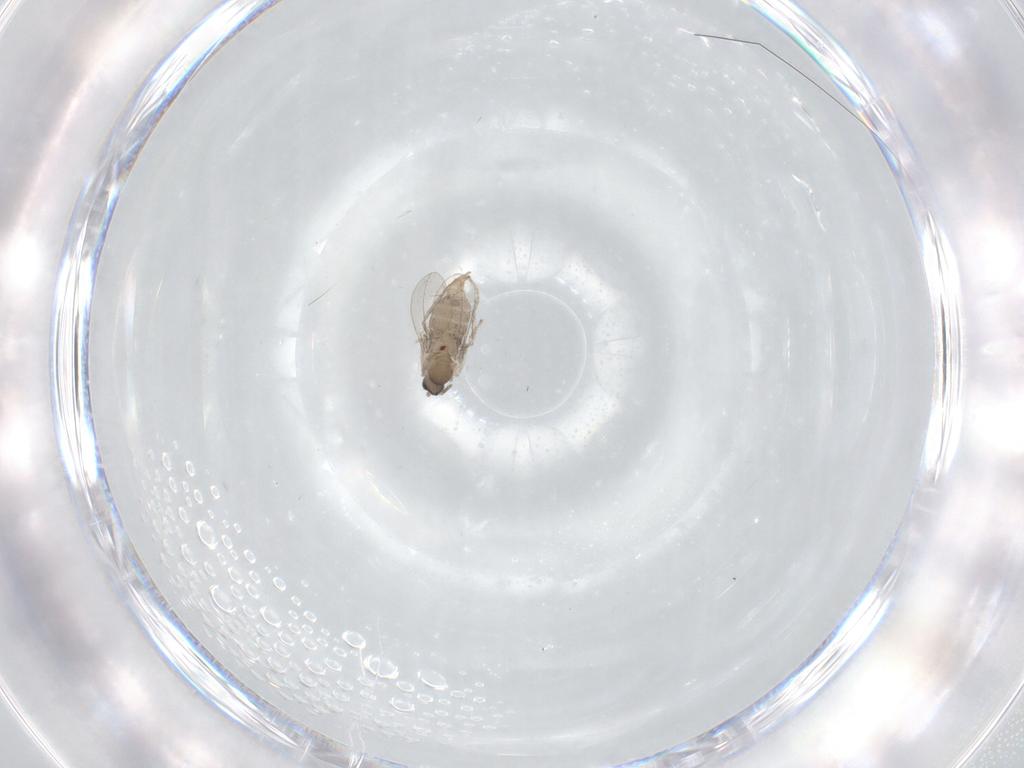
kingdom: Animalia
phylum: Arthropoda
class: Insecta
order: Diptera
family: Cecidomyiidae
